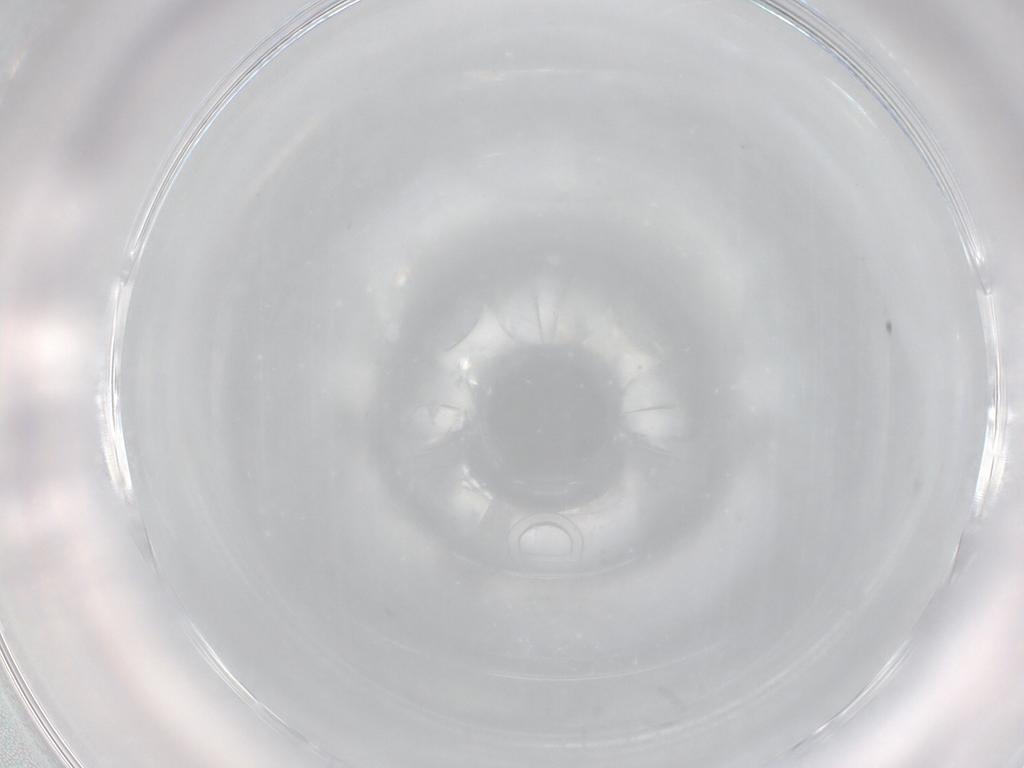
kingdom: Animalia
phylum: Arthropoda
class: Insecta
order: Diptera
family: Cecidomyiidae
